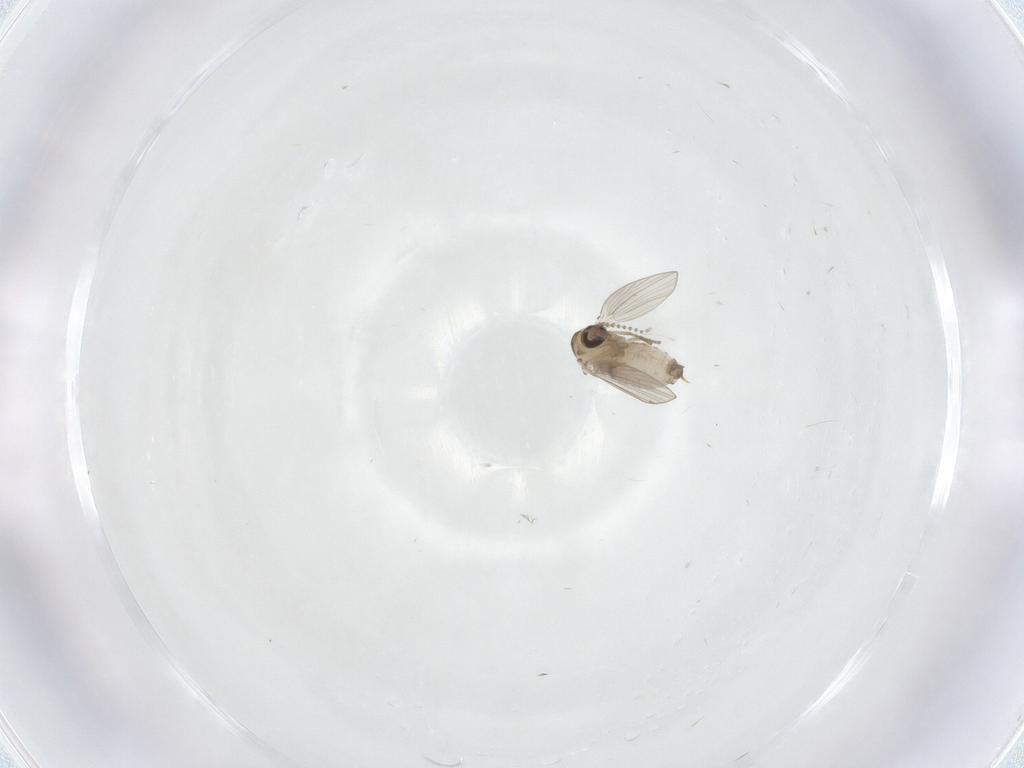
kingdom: Animalia
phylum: Arthropoda
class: Insecta
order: Diptera
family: Psychodidae
